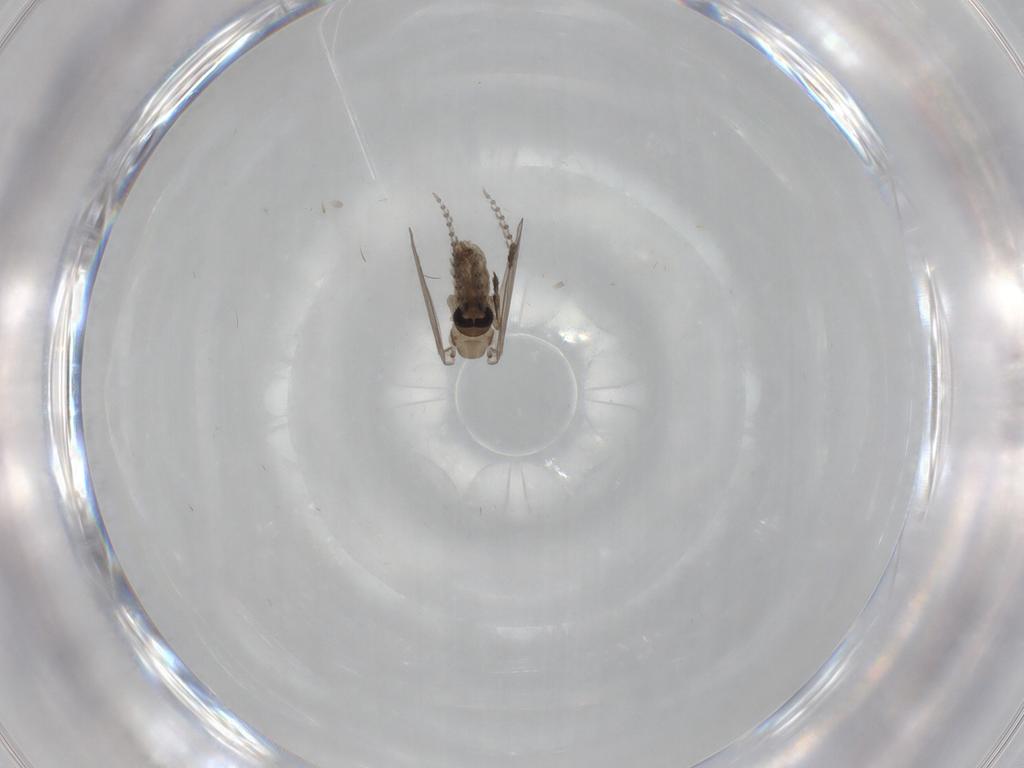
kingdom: Animalia
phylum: Arthropoda
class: Insecta
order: Diptera
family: Psychodidae
